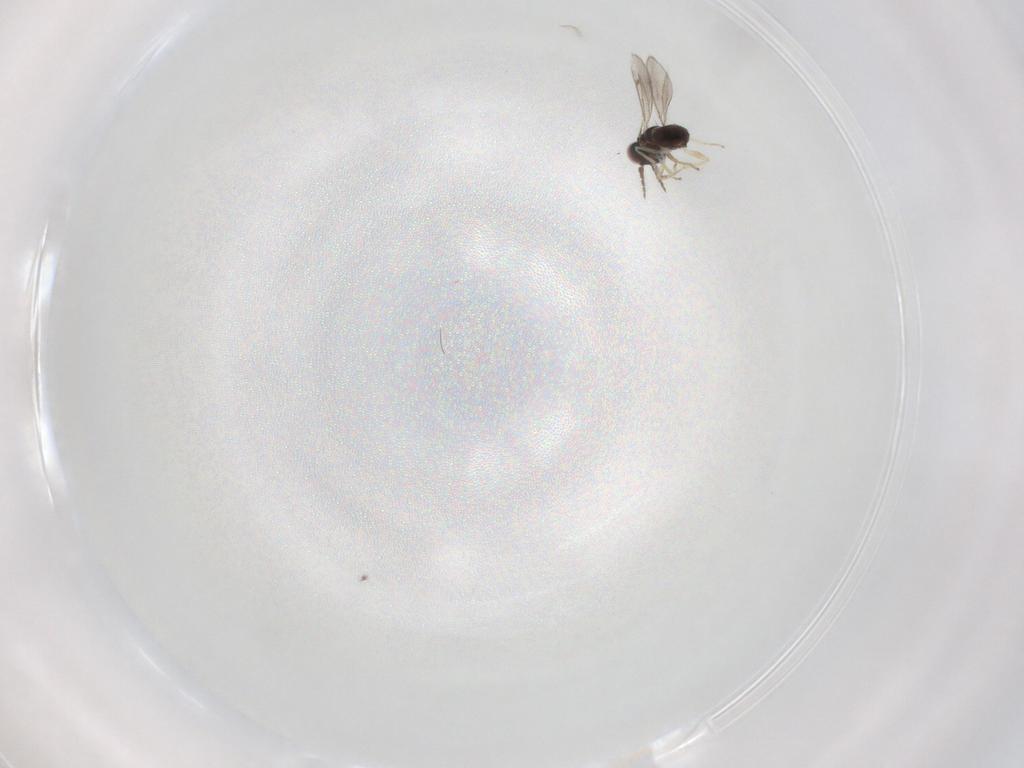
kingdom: Animalia
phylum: Arthropoda
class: Insecta
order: Hymenoptera
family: Eulophidae
